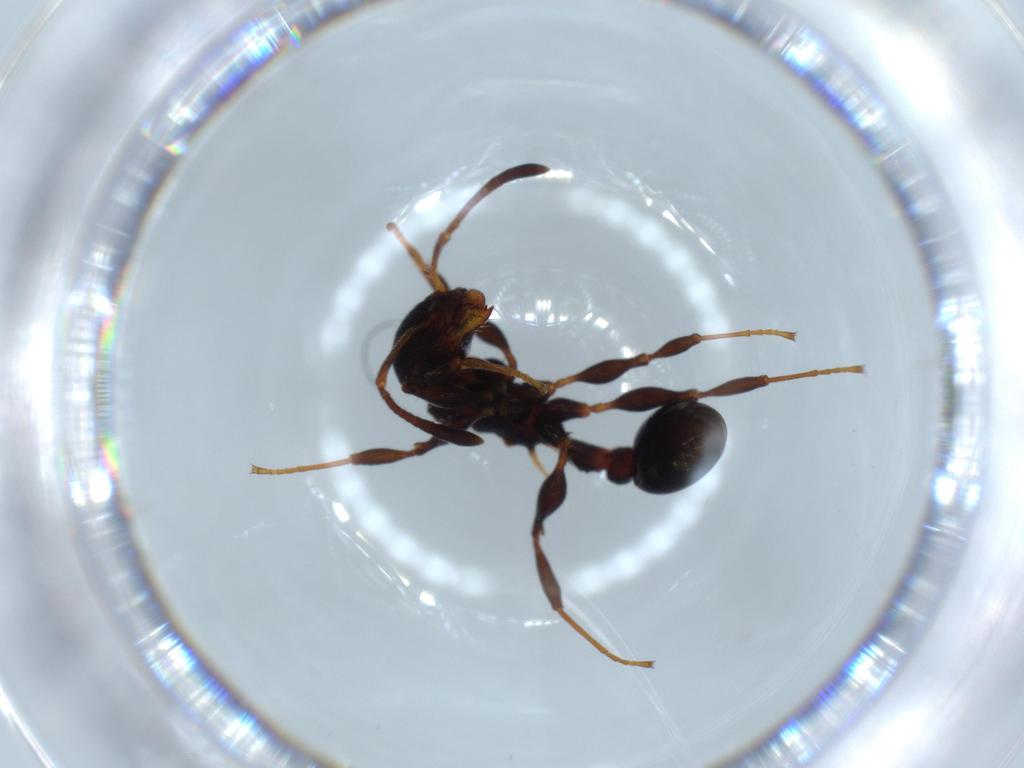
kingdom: Animalia
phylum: Arthropoda
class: Insecta
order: Hymenoptera
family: Formicidae
